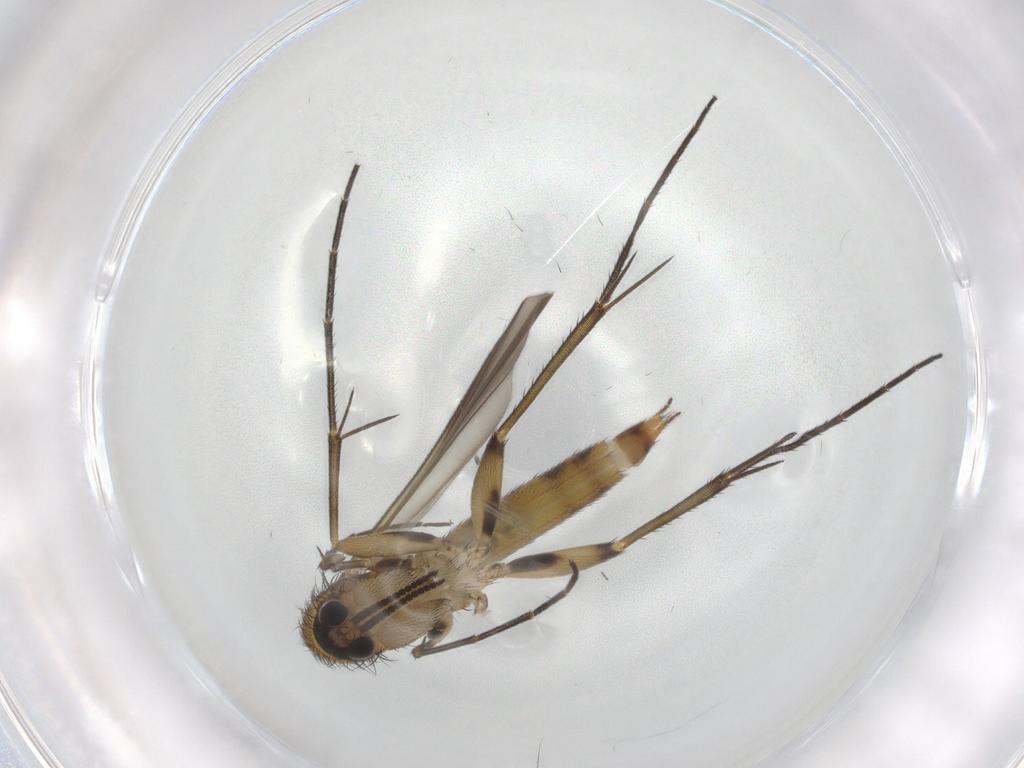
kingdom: Animalia
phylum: Arthropoda
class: Insecta
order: Diptera
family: Mycetophilidae
